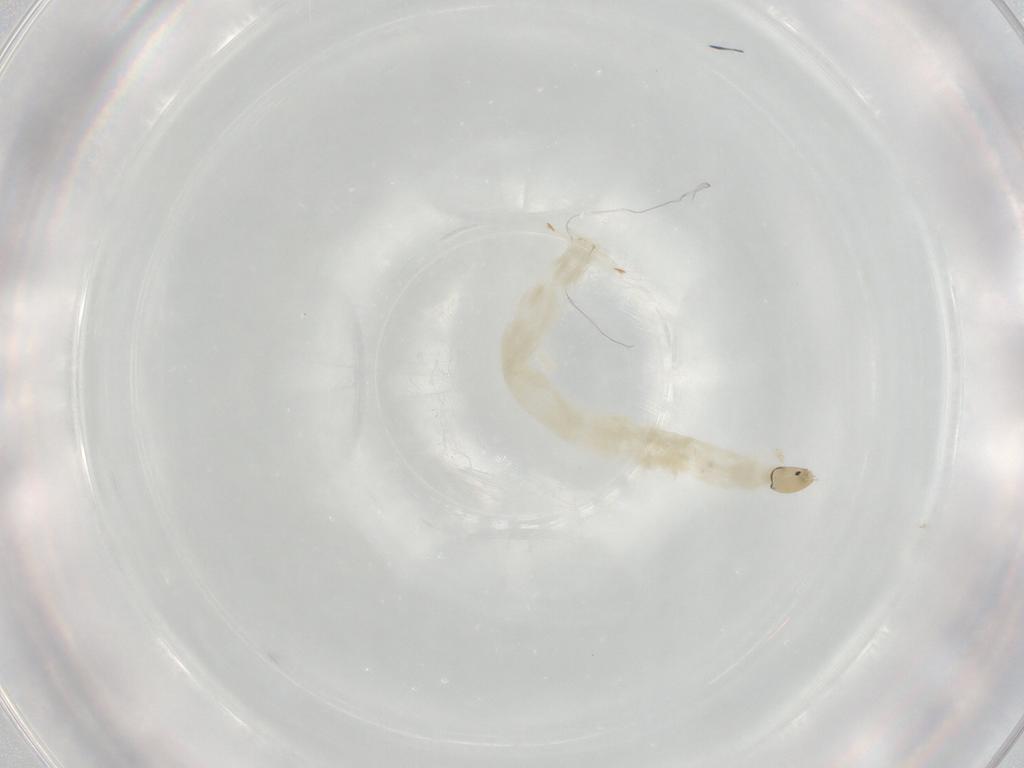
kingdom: Animalia
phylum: Arthropoda
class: Insecta
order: Diptera
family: Chironomidae
